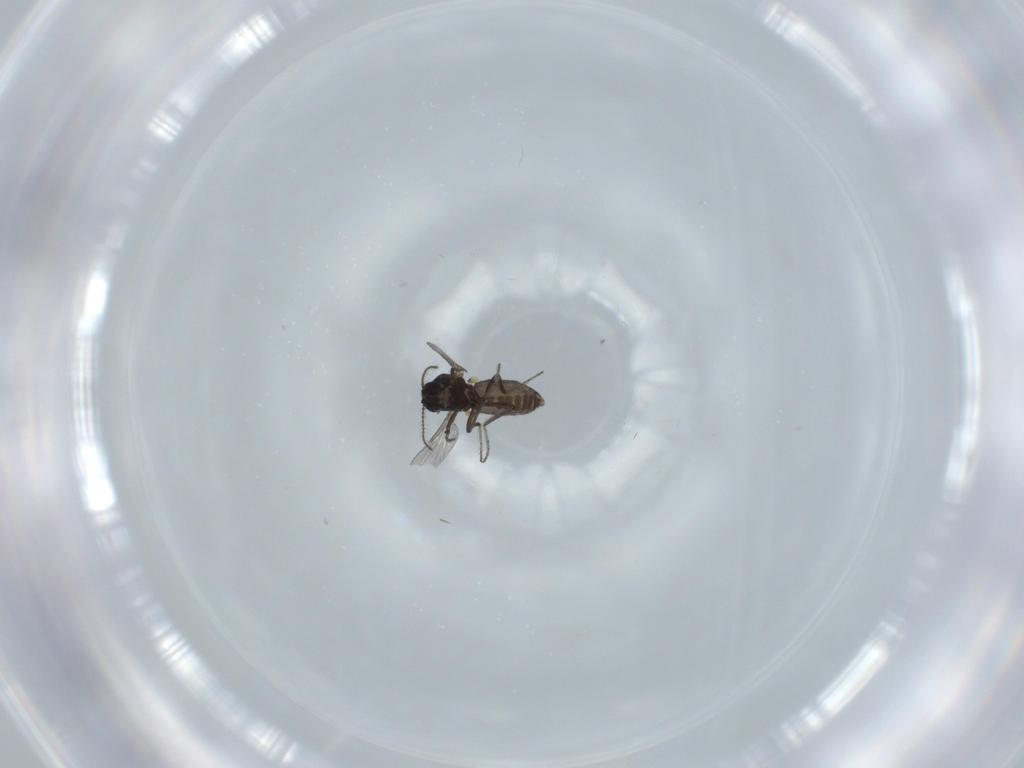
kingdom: Animalia
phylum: Arthropoda
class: Insecta
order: Diptera
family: Ceratopogonidae
